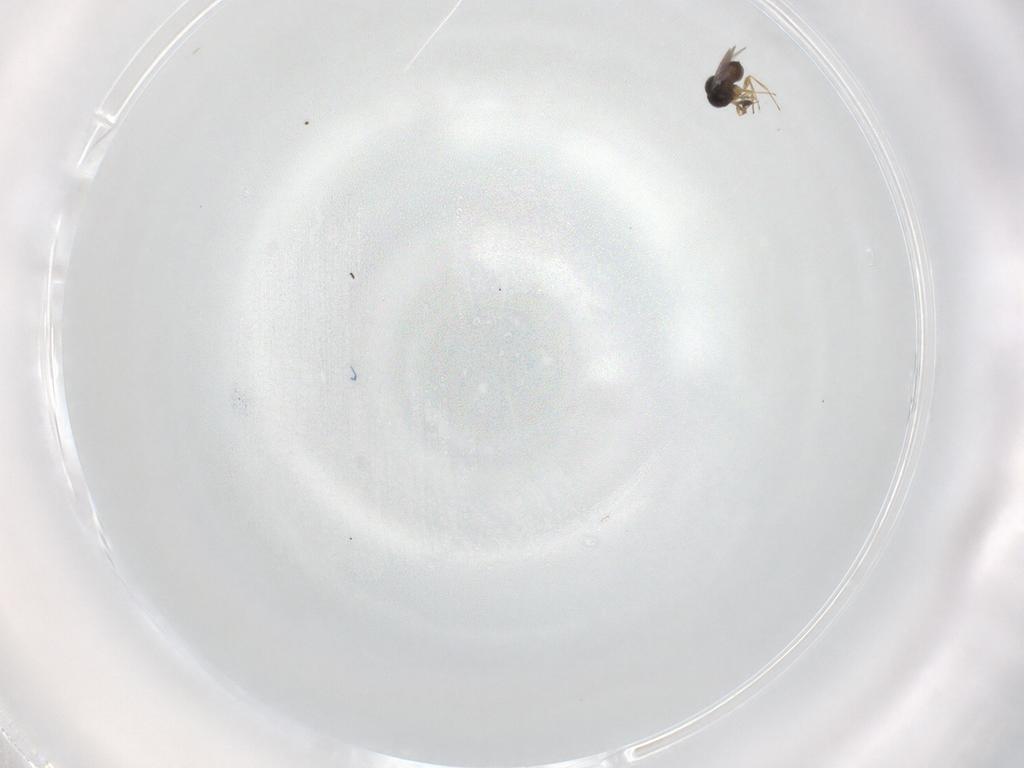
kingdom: Animalia
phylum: Arthropoda
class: Insecta
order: Hymenoptera
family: Scelionidae
